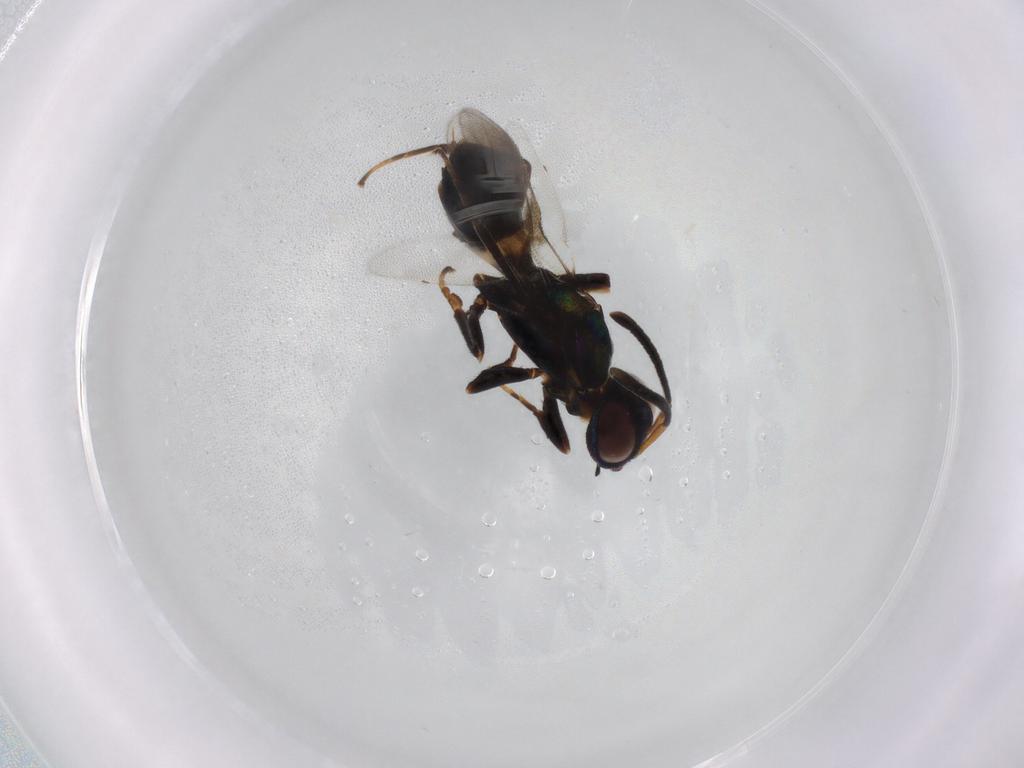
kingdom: Animalia
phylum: Arthropoda
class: Insecta
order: Hymenoptera
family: Eupelmidae
